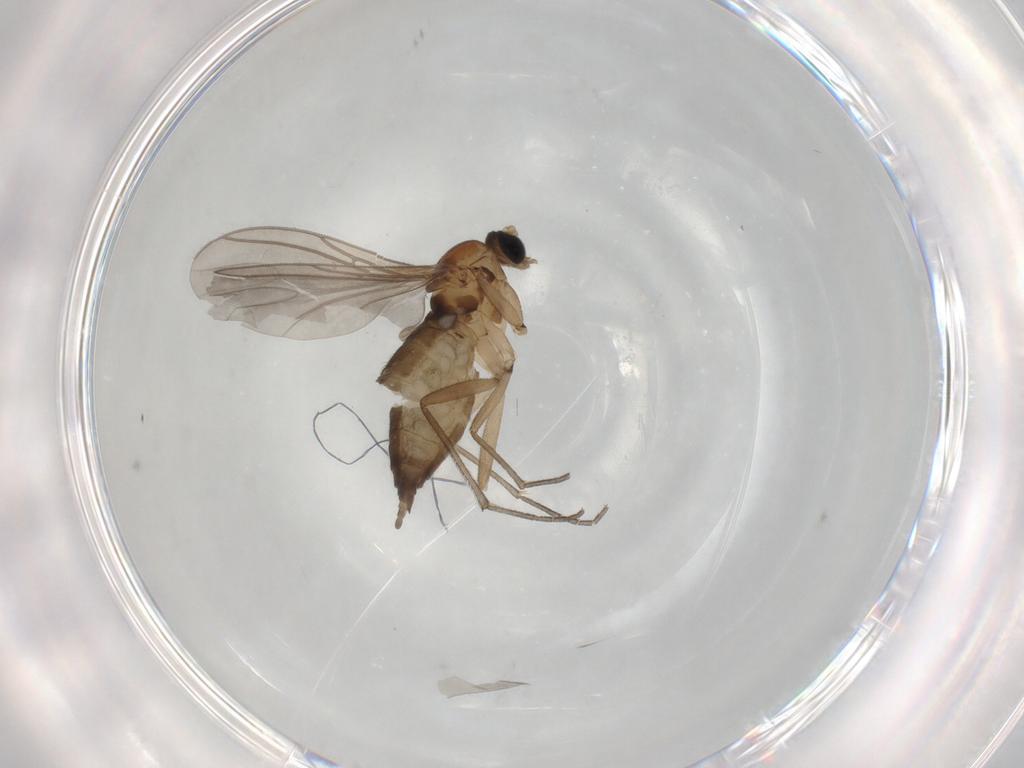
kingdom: Animalia
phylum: Arthropoda
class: Insecta
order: Diptera
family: Sciaridae
